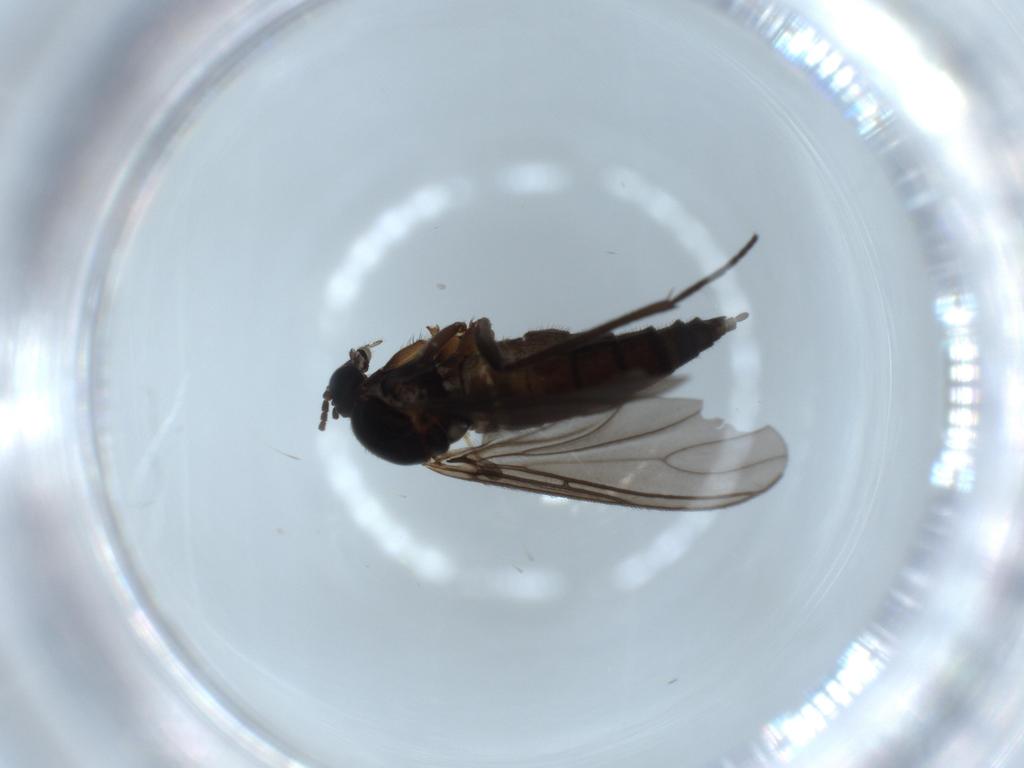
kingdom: Animalia
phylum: Arthropoda
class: Insecta
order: Diptera
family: Sciaridae
